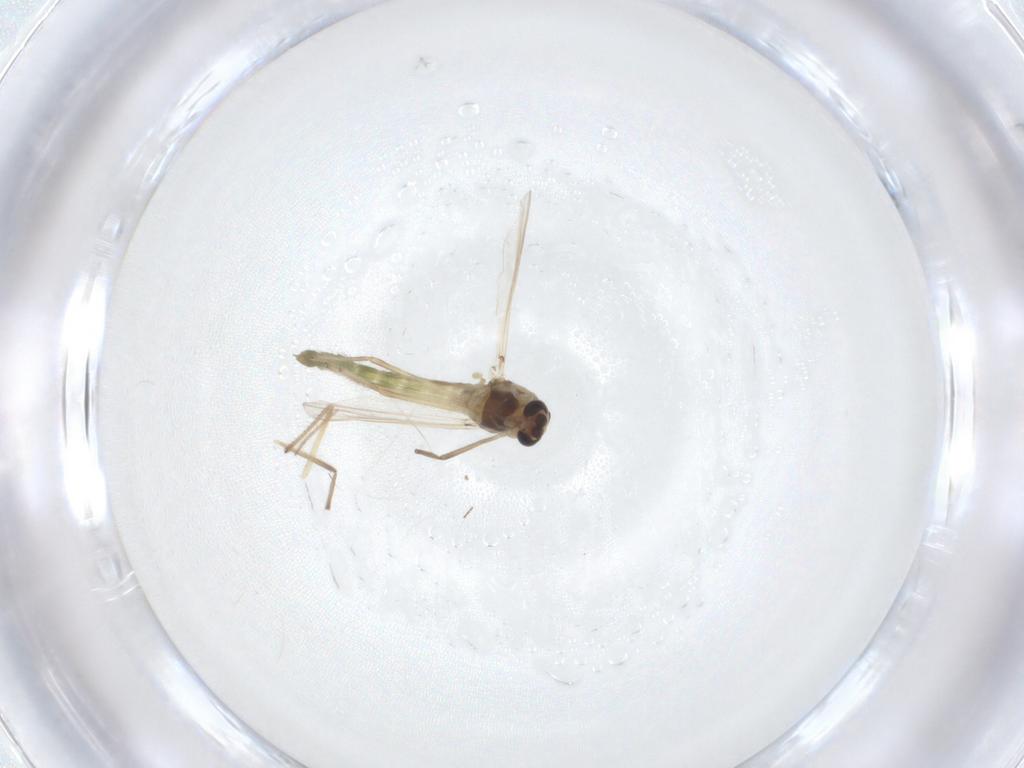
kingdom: Animalia
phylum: Arthropoda
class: Insecta
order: Diptera
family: Chironomidae
